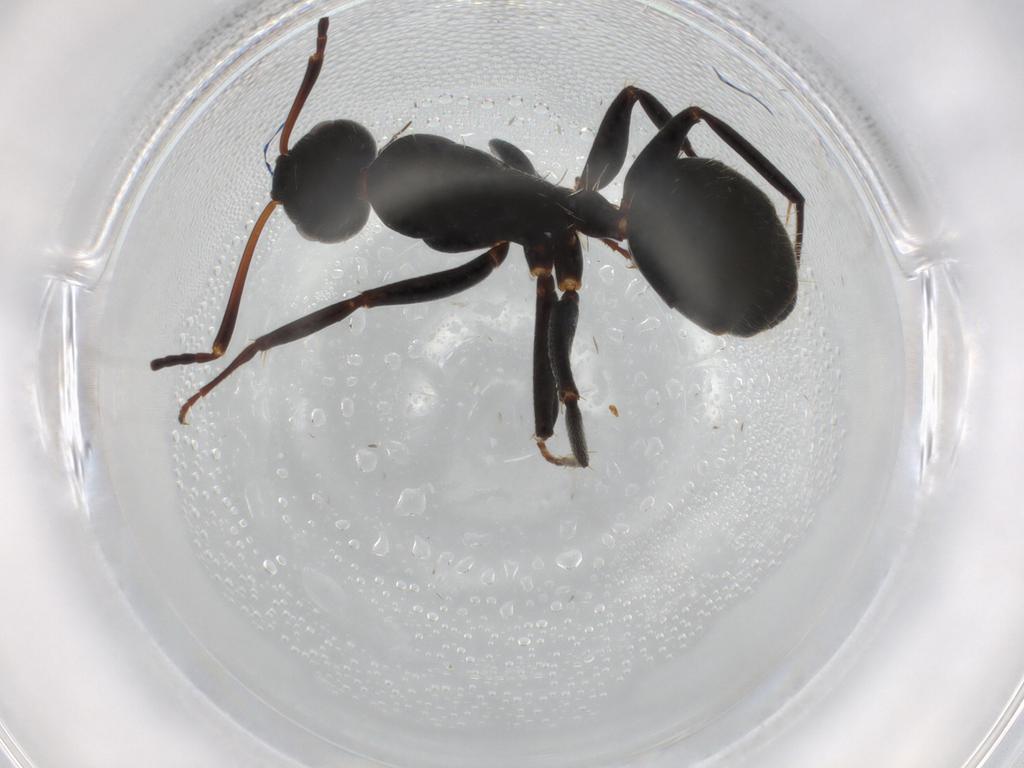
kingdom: Animalia
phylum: Arthropoda
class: Insecta
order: Hymenoptera
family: Formicidae
